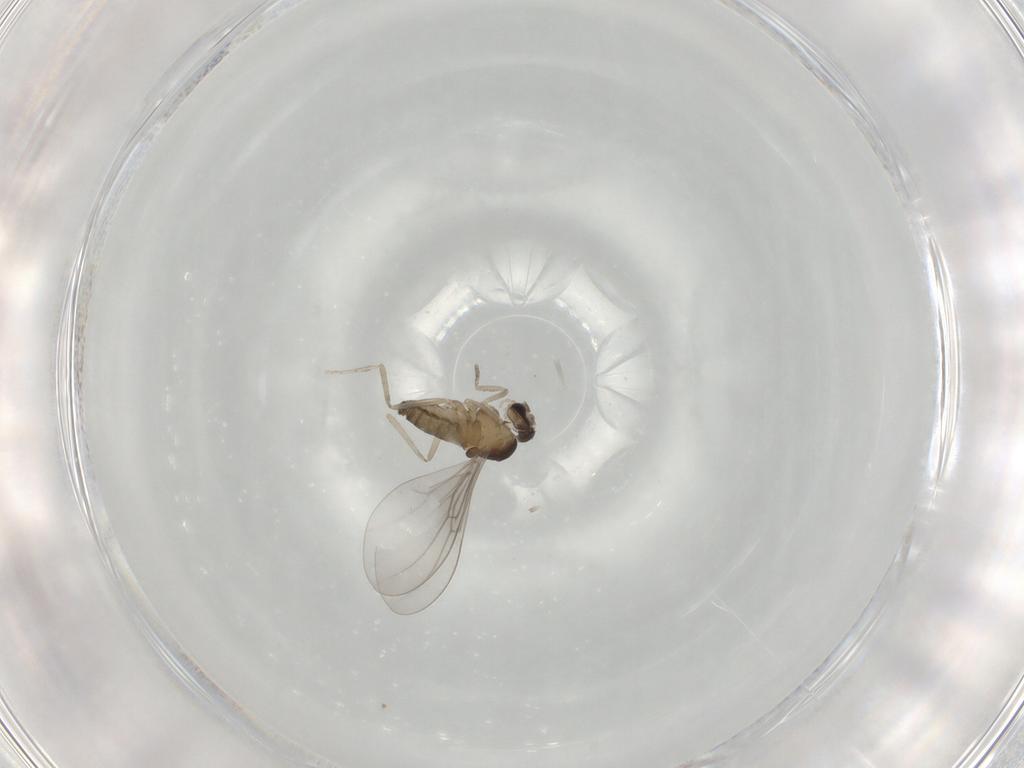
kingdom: Animalia
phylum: Arthropoda
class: Insecta
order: Diptera
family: Cecidomyiidae
